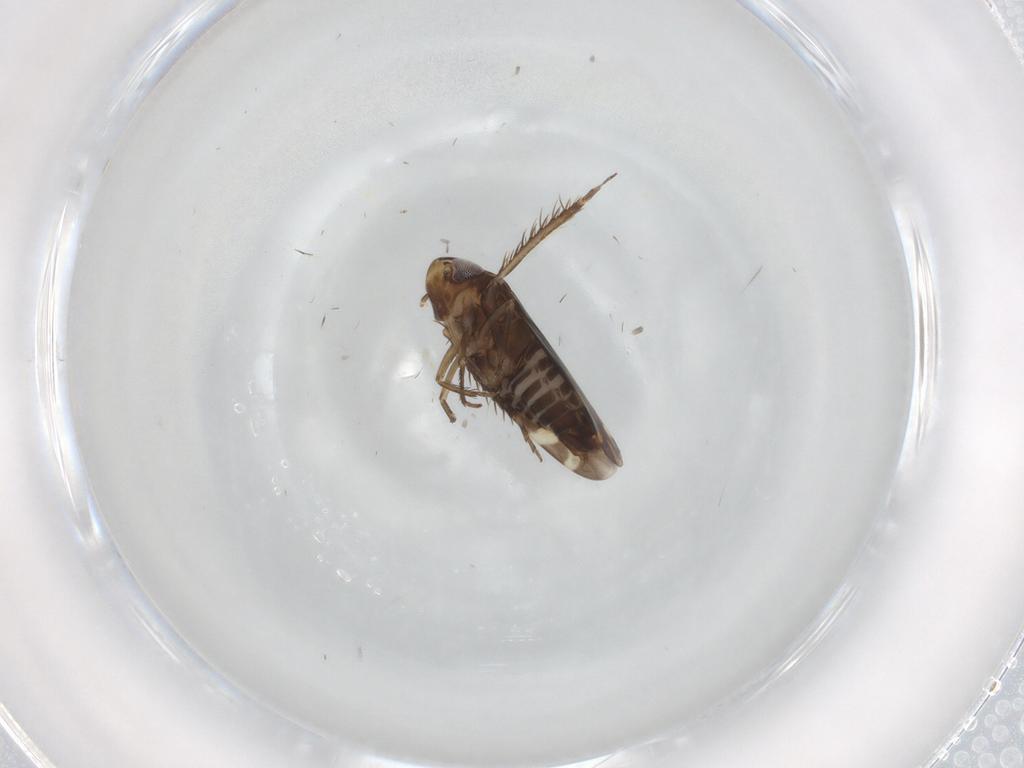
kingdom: Animalia
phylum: Arthropoda
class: Insecta
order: Hemiptera
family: Cicadellidae
